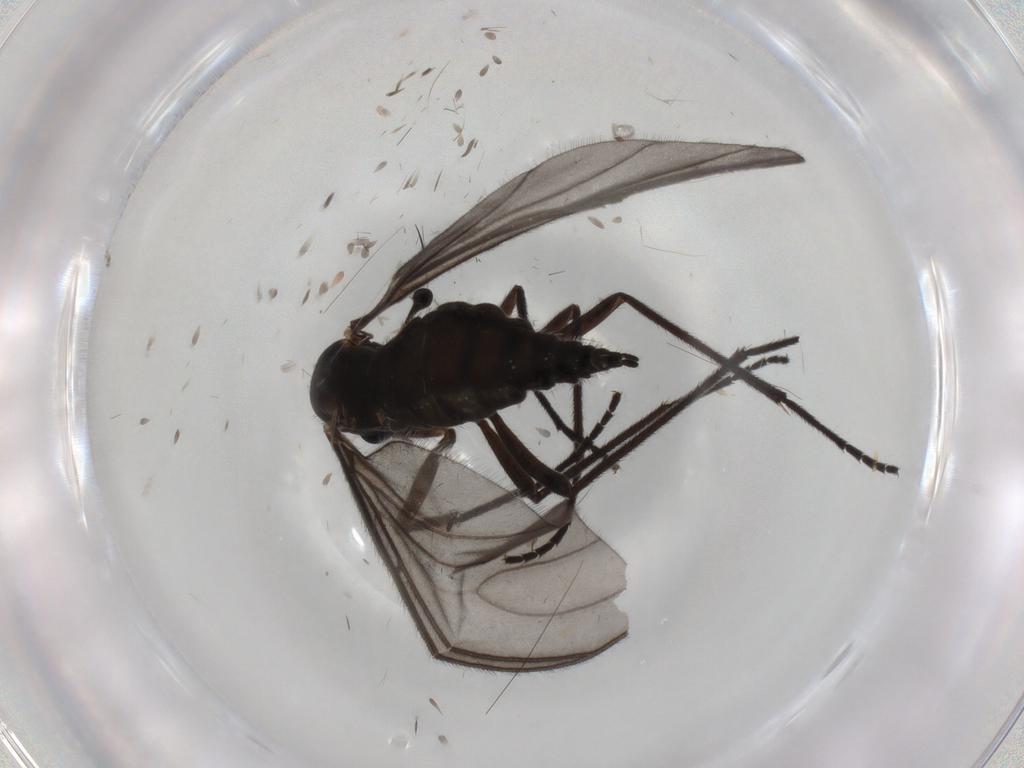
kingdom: Animalia
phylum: Arthropoda
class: Insecta
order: Diptera
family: Sciaridae
